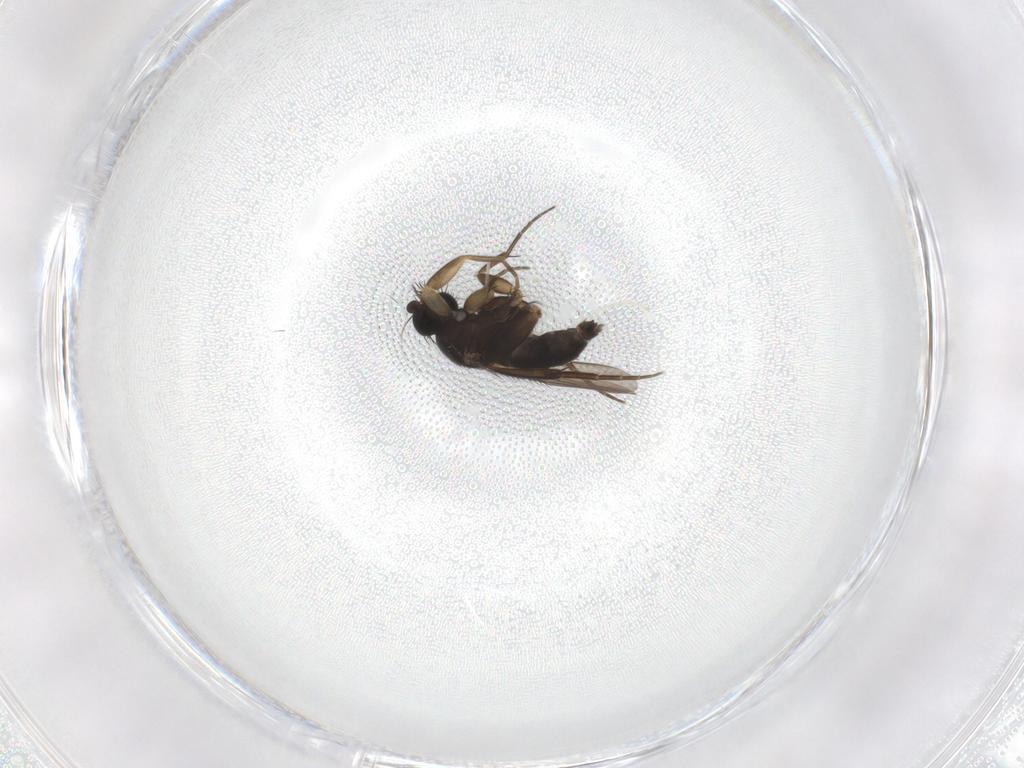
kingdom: Animalia
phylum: Arthropoda
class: Insecta
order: Diptera
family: Phoridae
